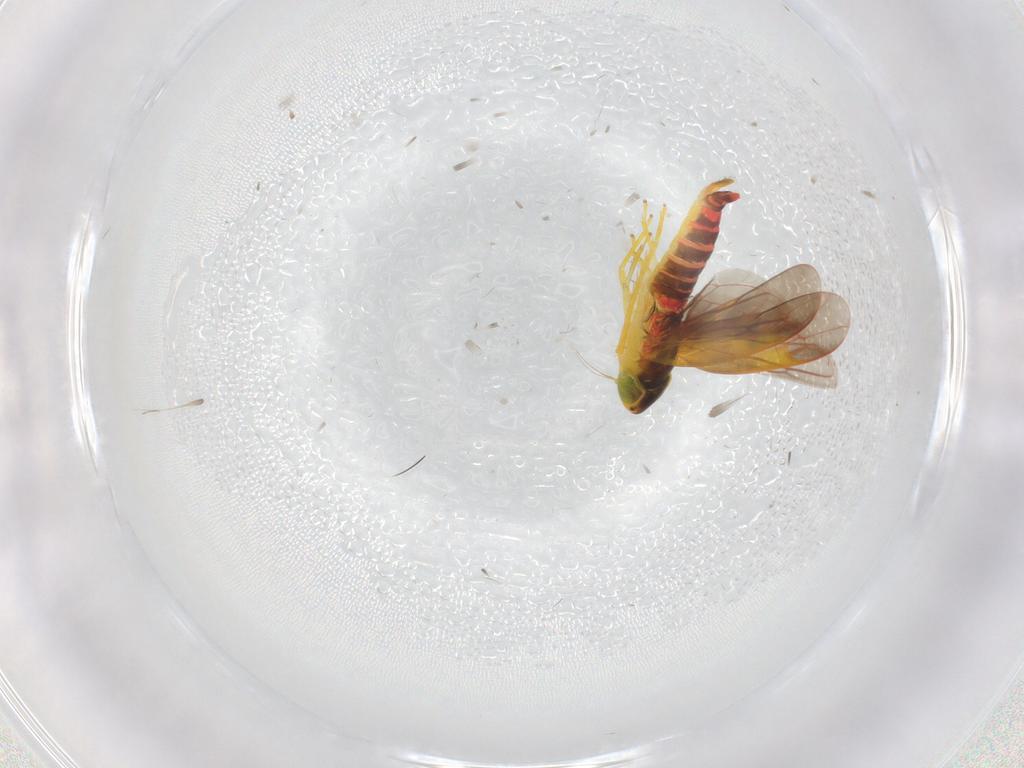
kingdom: Animalia
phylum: Arthropoda
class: Insecta
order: Hemiptera
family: Cicadellidae
